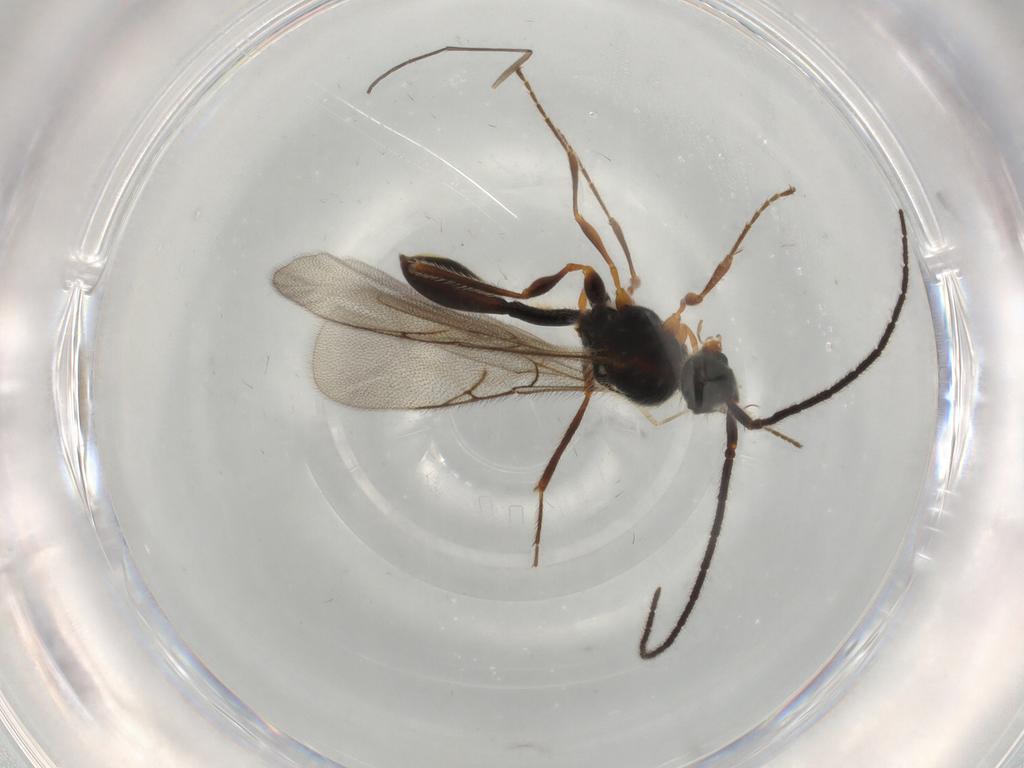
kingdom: Animalia
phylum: Arthropoda
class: Insecta
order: Hymenoptera
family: Diapriidae
